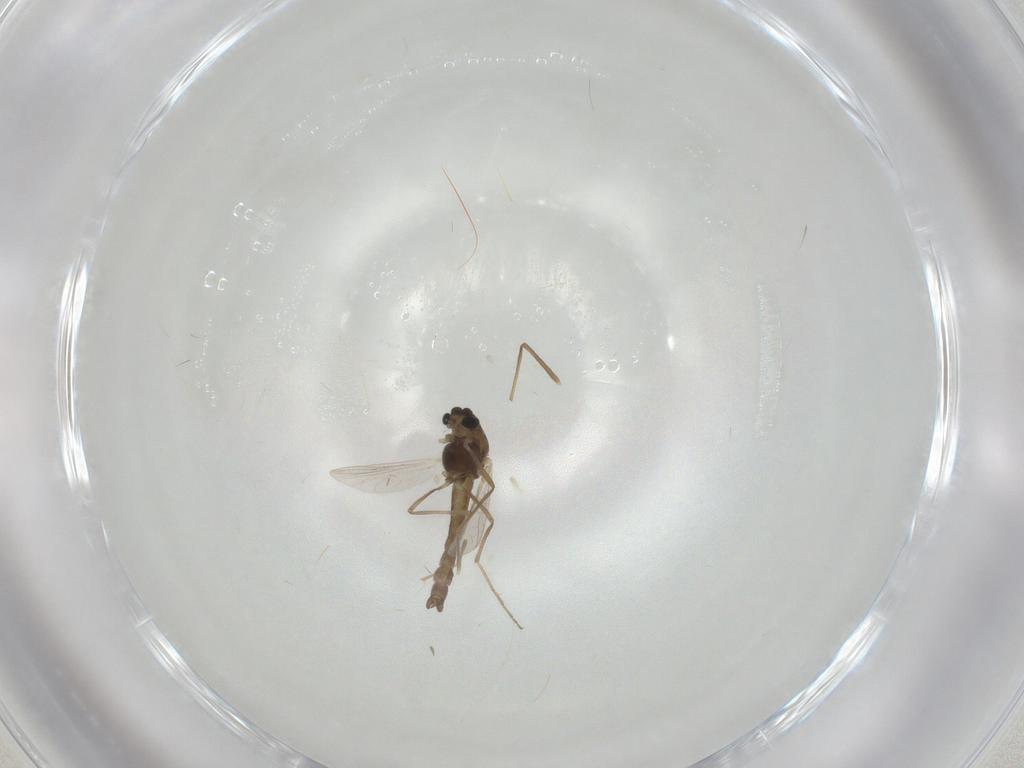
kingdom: Animalia
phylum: Arthropoda
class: Insecta
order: Diptera
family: Chironomidae
